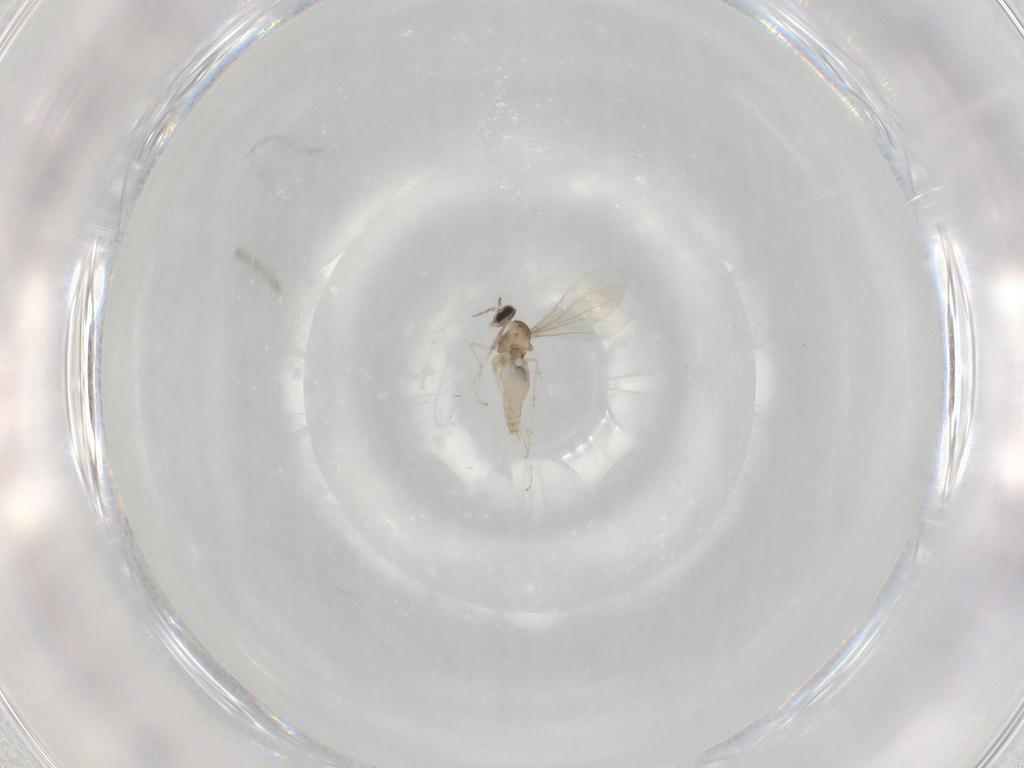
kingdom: Animalia
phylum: Arthropoda
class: Insecta
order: Diptera
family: Cecidomyiidae
